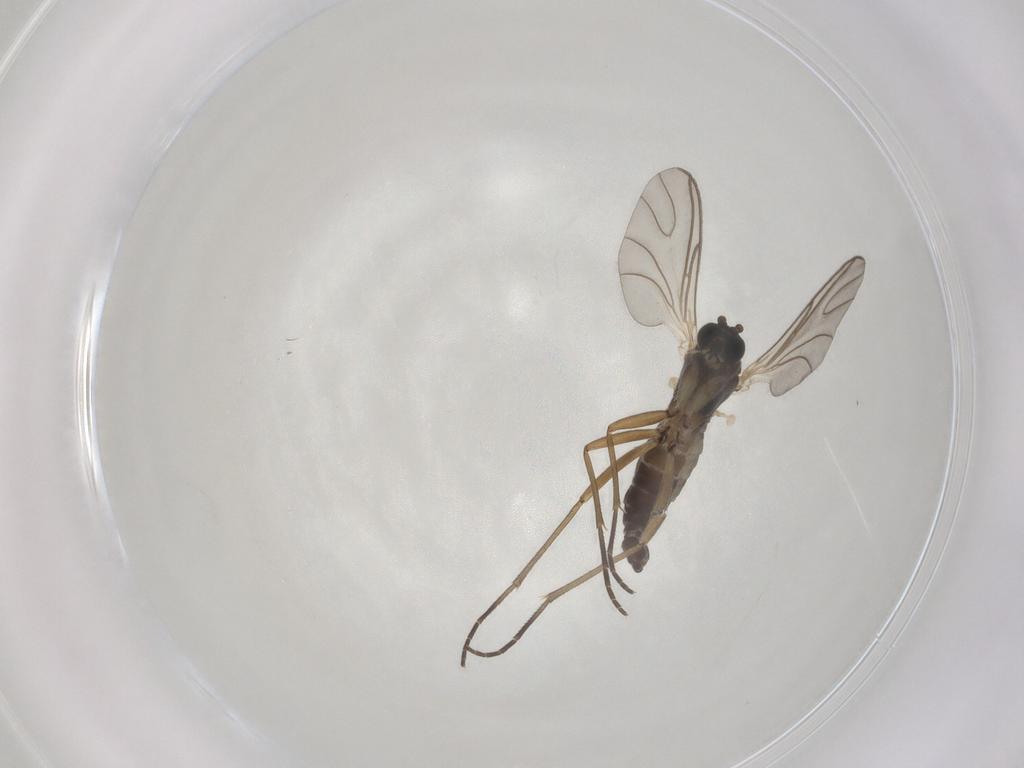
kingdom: Animalia
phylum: Arthropoda
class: Insecta
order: Diptera
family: Sciaridae
